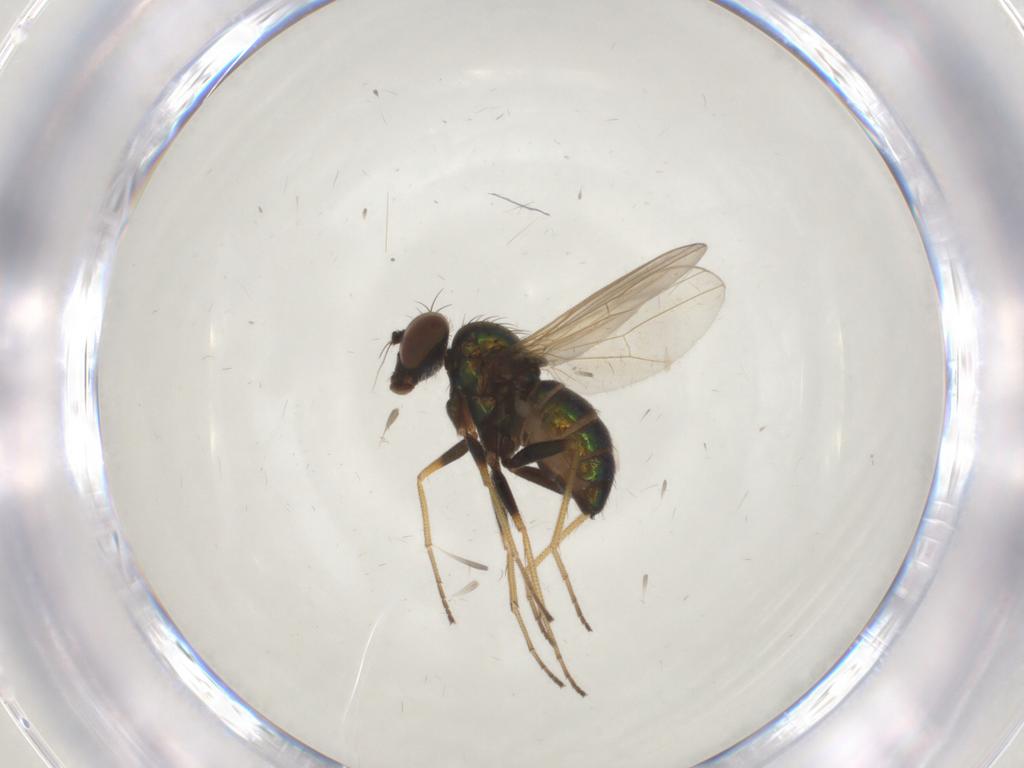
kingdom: Animalia
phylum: Arthropoda
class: Insecta
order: Diptera
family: Dolichopodidae
